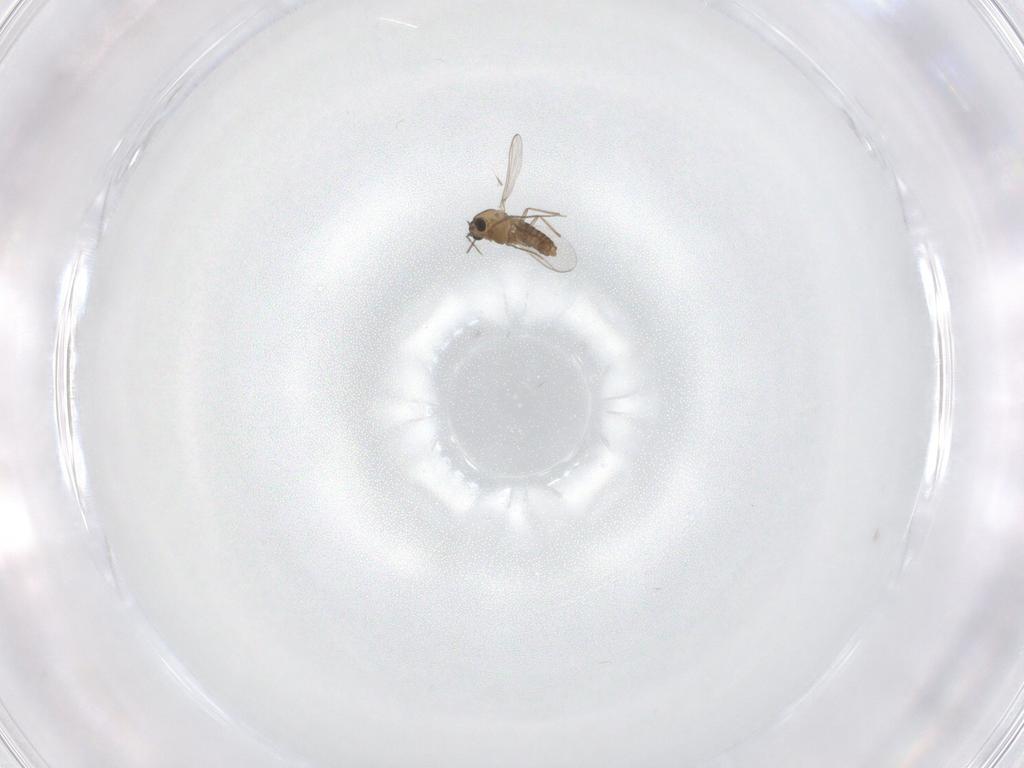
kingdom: Animalia
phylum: Arthropoda
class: Insecta
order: Diptera
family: Chironomidae
